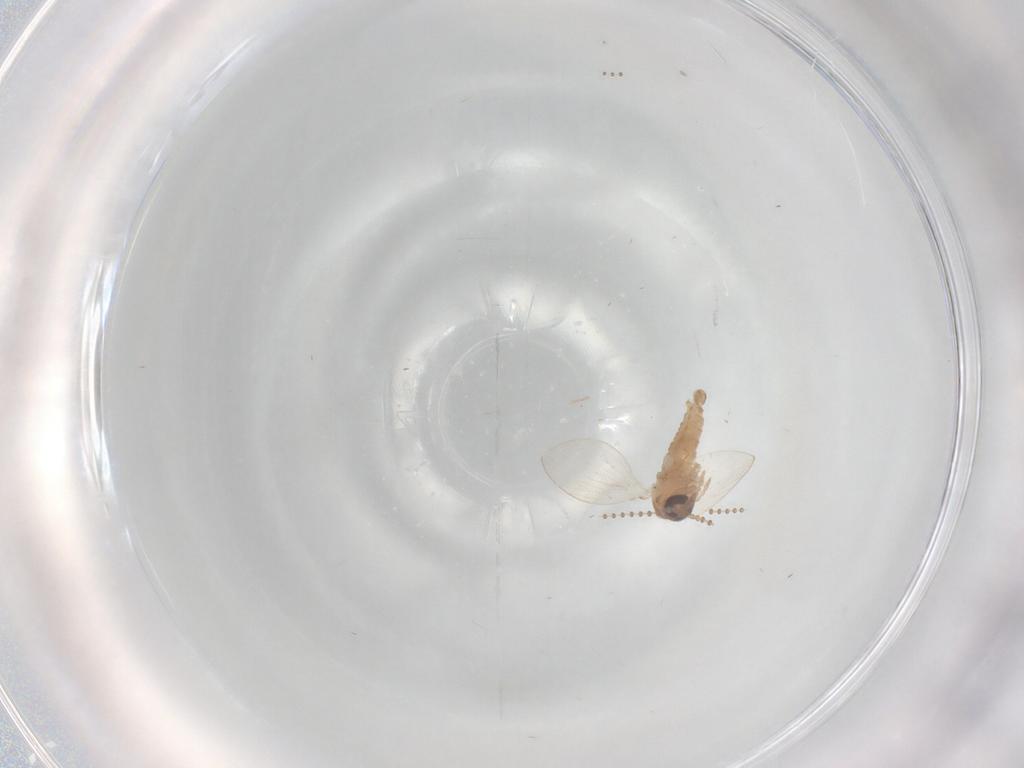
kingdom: Animalia
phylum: Arthropoda
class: Insecta
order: Diptera
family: Psychodidae
